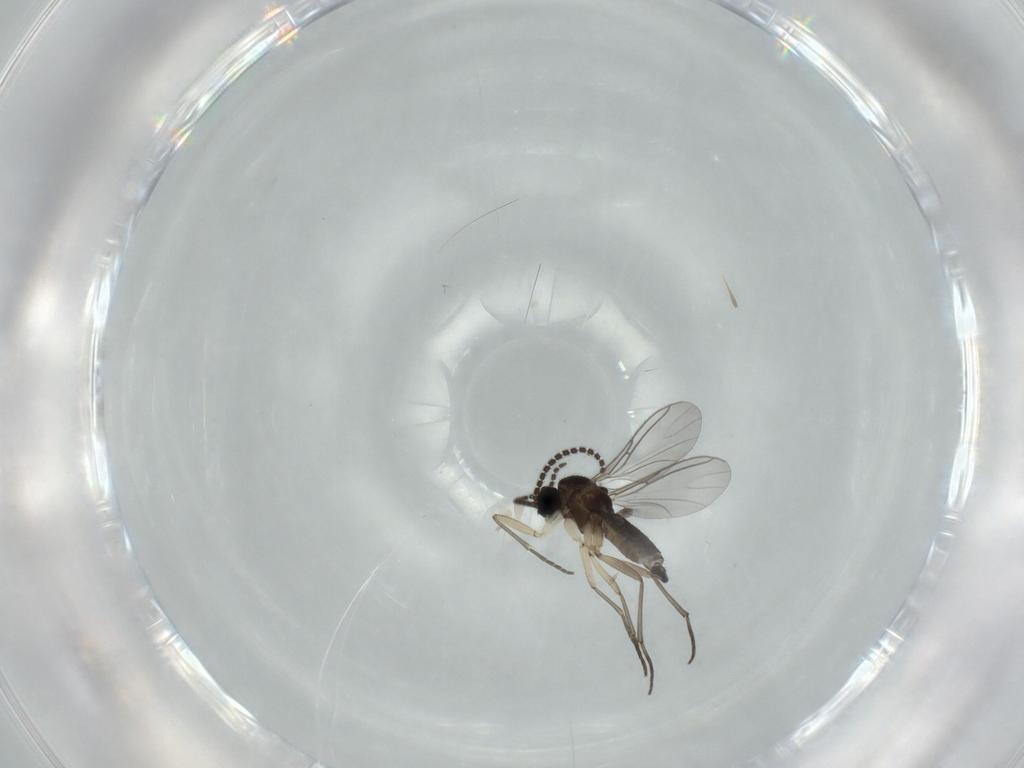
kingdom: Animalia
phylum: Arthropoda
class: Insecta
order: Diptera
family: Sciaridae
